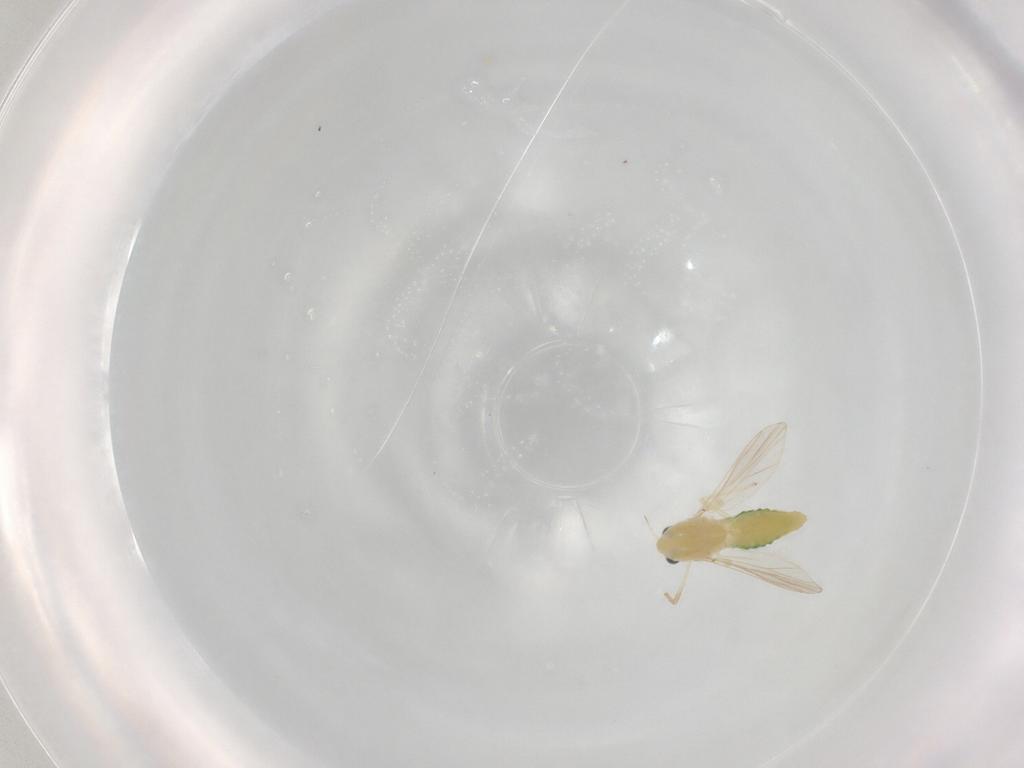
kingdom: Animalia
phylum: Arthropoda
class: Insecta
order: Diptera
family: Chironomidae
